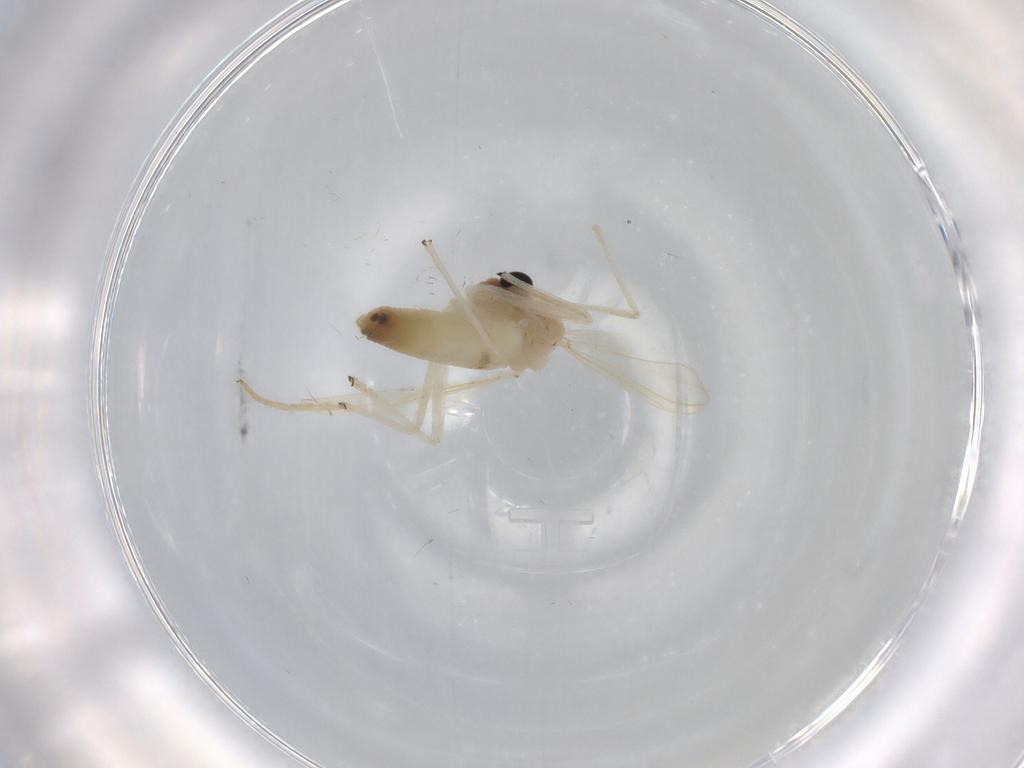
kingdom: Animalia
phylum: Arthropoda
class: Insecta
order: Diptera
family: Chironomidae
